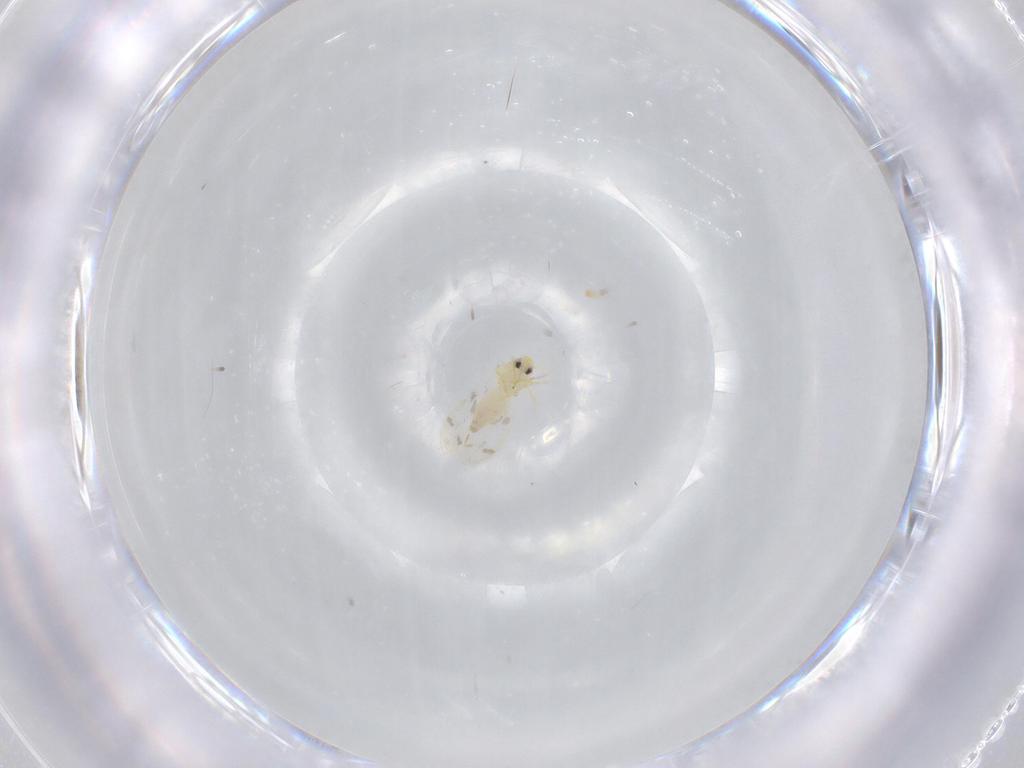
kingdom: Animalia
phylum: Arthropoda
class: Insecta
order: Hemiptera
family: Aleyrodidae
